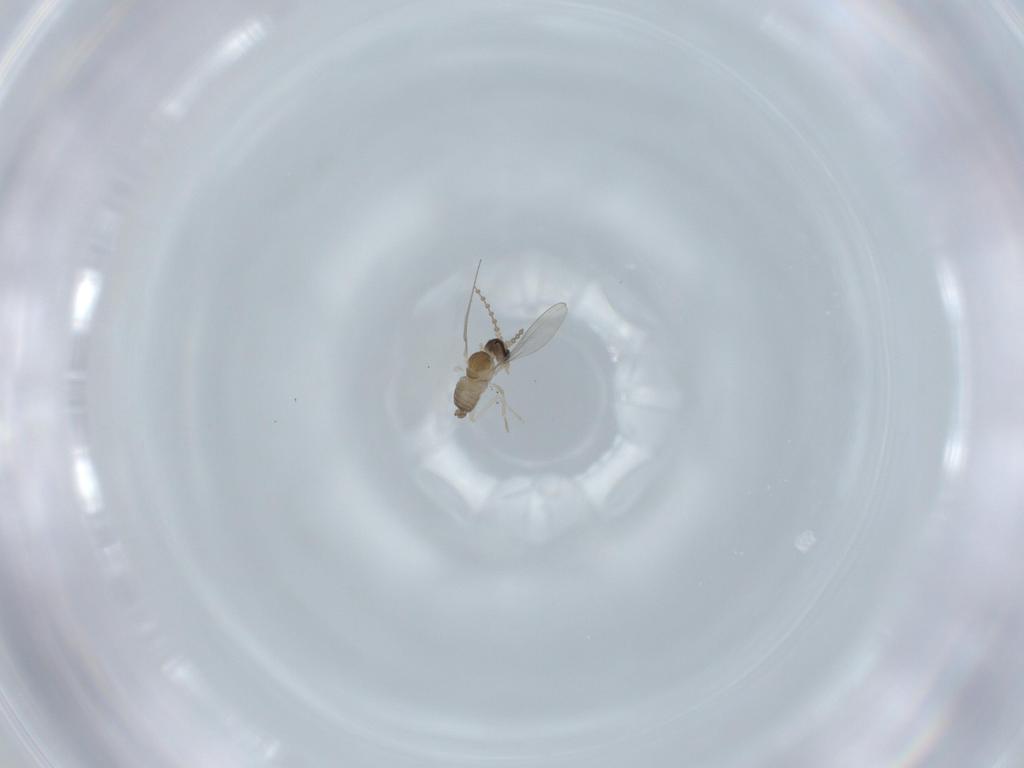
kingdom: Animalia
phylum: Arthropoda
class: Insecta
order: Diptera
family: Cecidomyiidae
